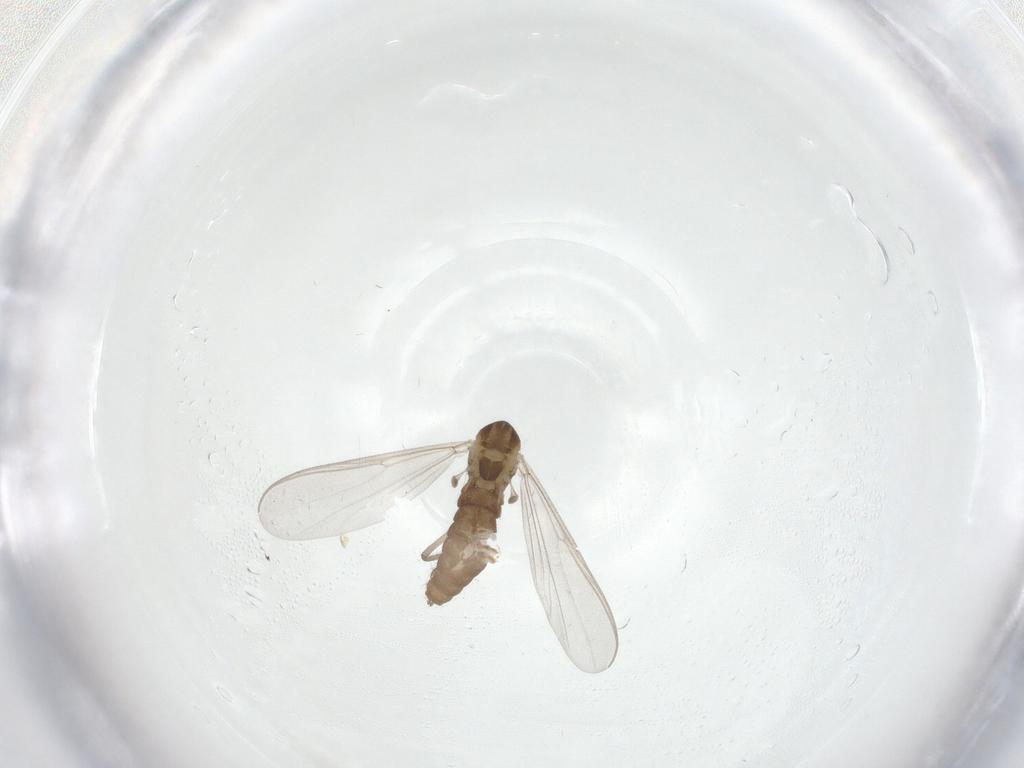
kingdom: Animalia
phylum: Arthropoda
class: Insecta
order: Diptera
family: Chironomidae
